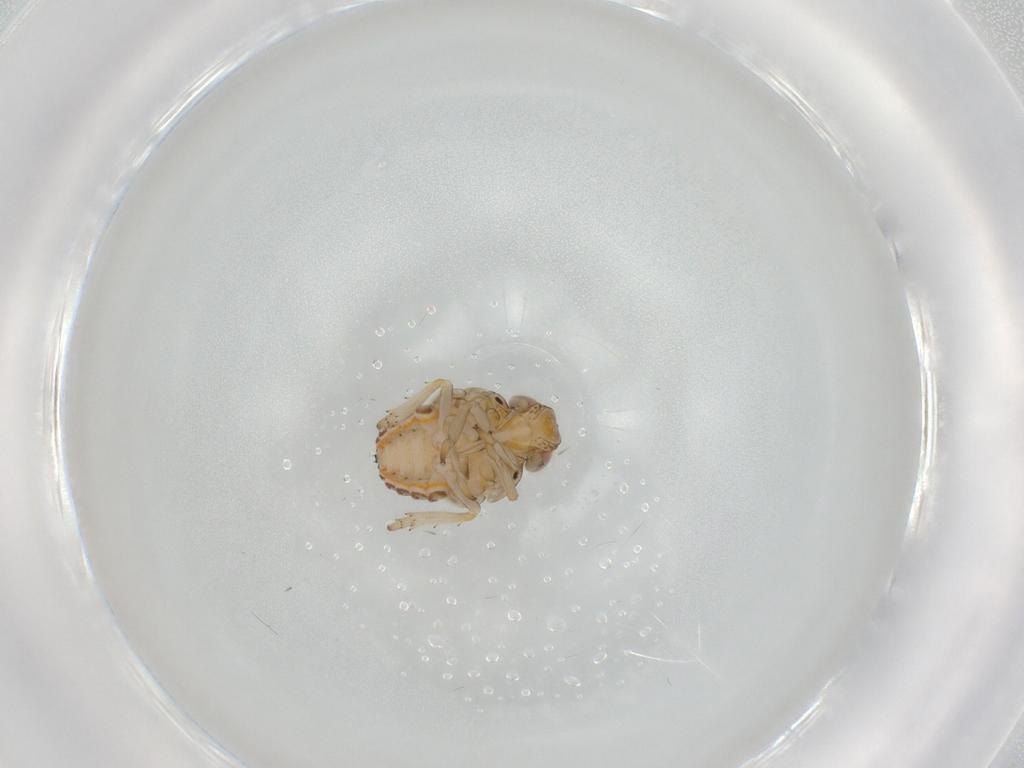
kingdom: Animalia
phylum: Arthropoda
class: Insecta
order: Hemiptera
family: Issidae
